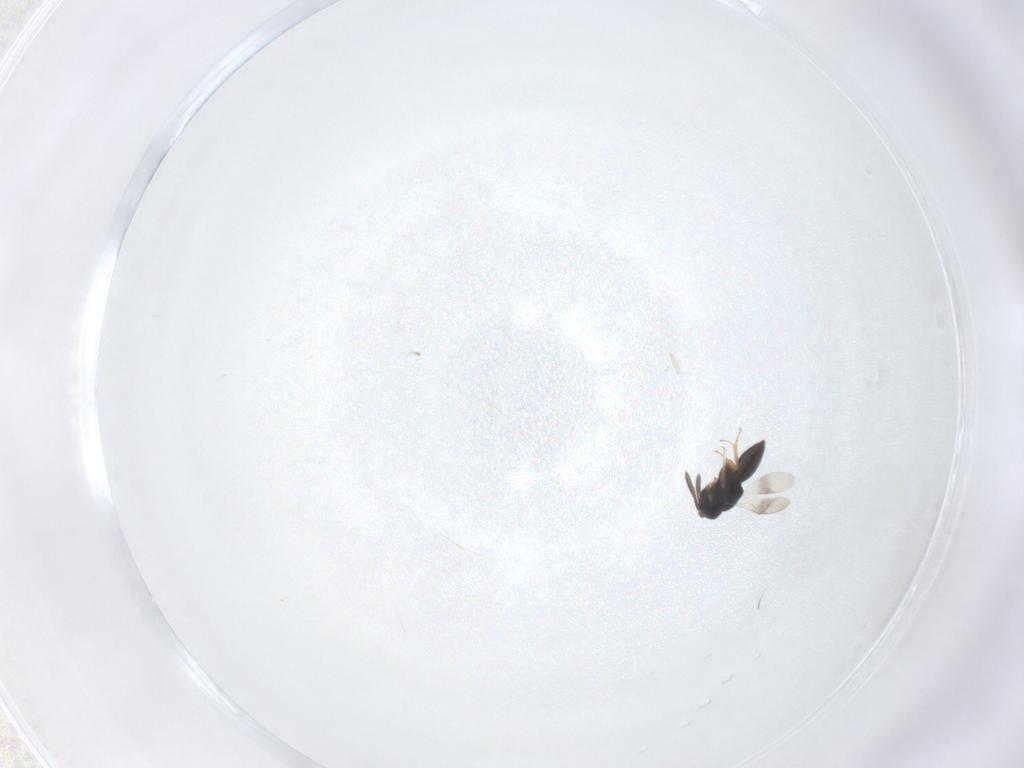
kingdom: Animalia
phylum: Arthropoda
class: Insecta
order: Hymenoptera
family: Scelionidae
